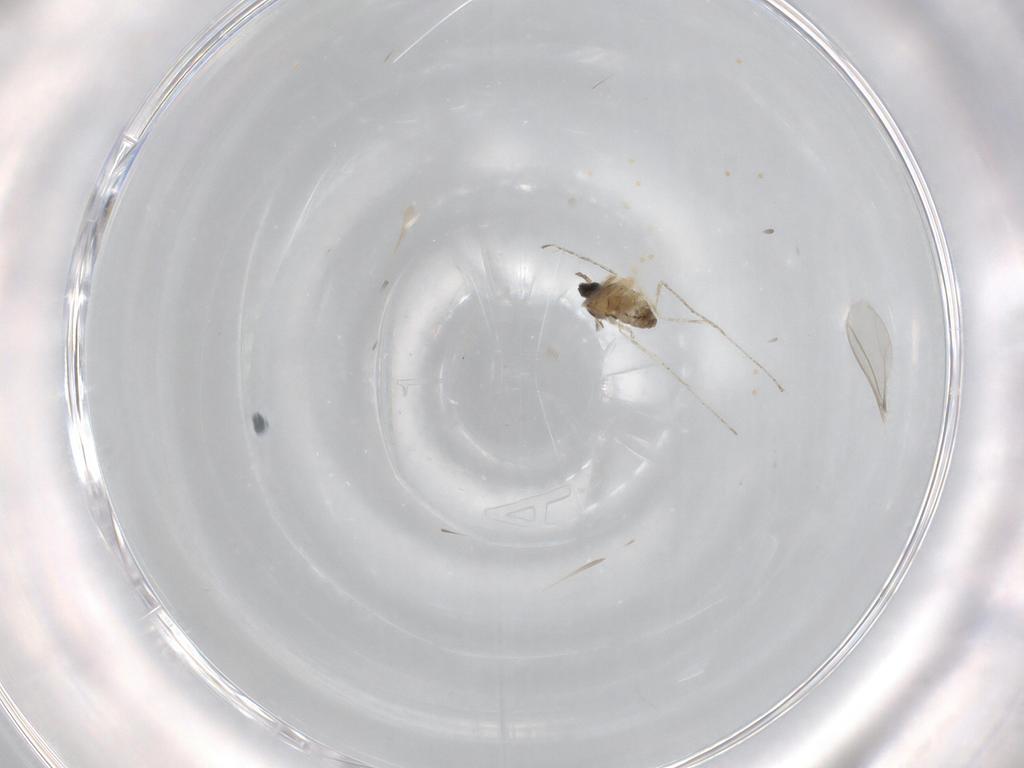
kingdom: Animalia
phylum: Arthropoda
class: Insecta
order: Diptera
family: Cecidomyiidae
